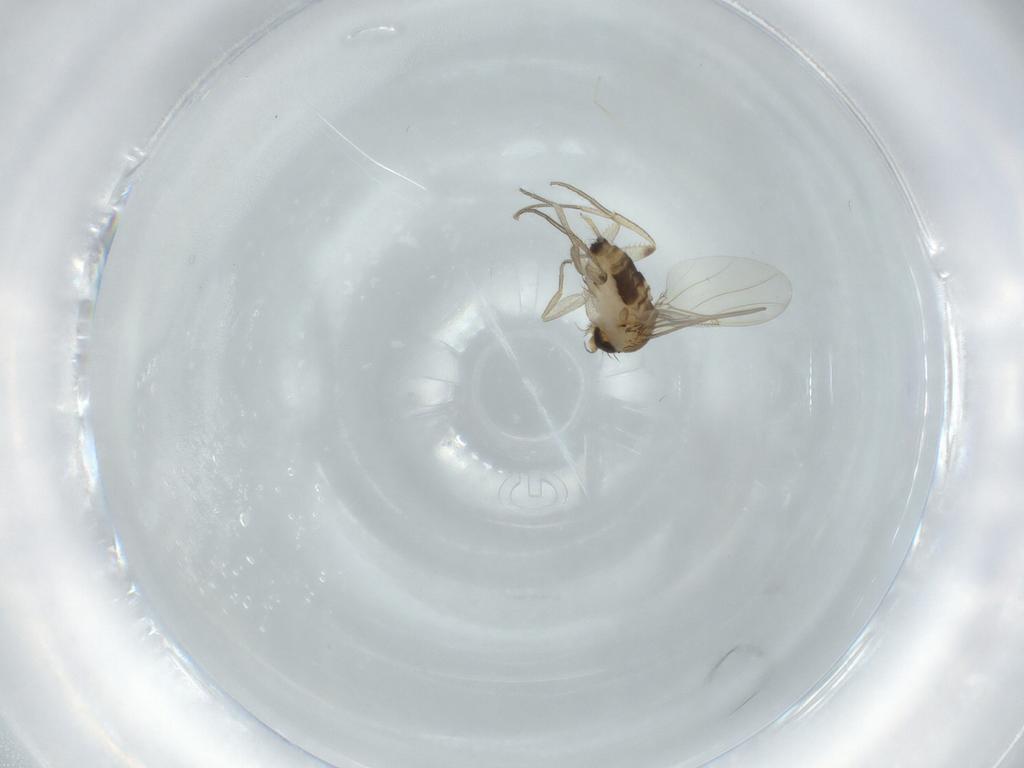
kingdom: Animalia
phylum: Arthropoda
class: Insecta
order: Diptera
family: Phoridae
